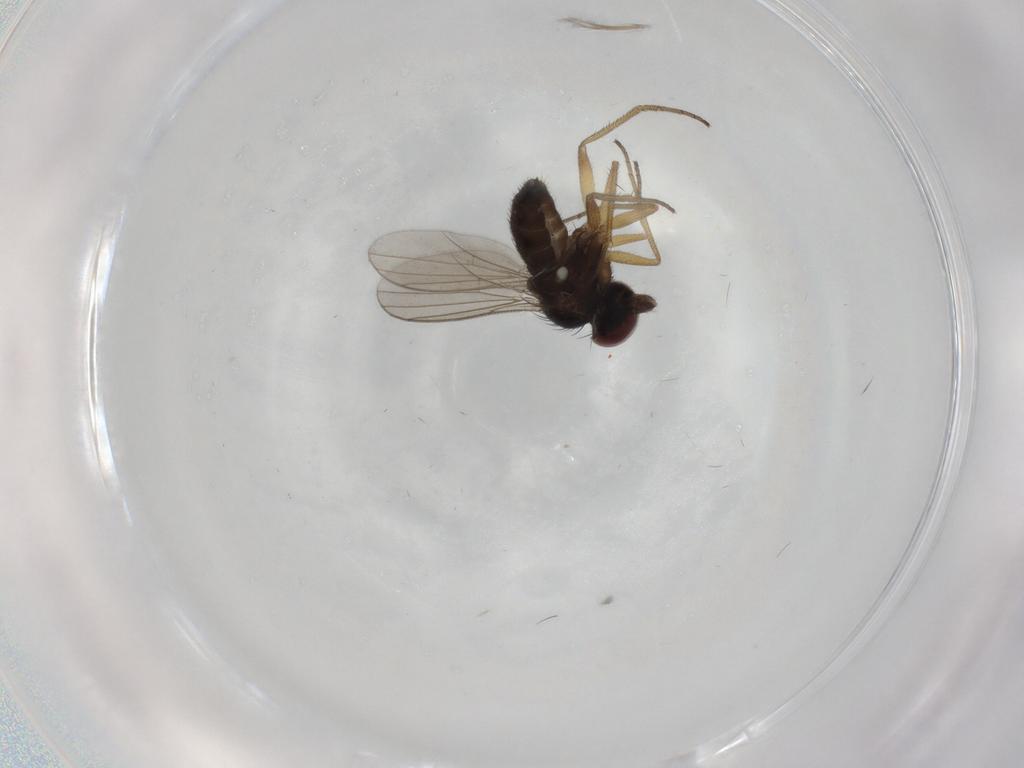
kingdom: Animalia
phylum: Arthropoda
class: Insecta
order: Diptera
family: Dolichopodidae
